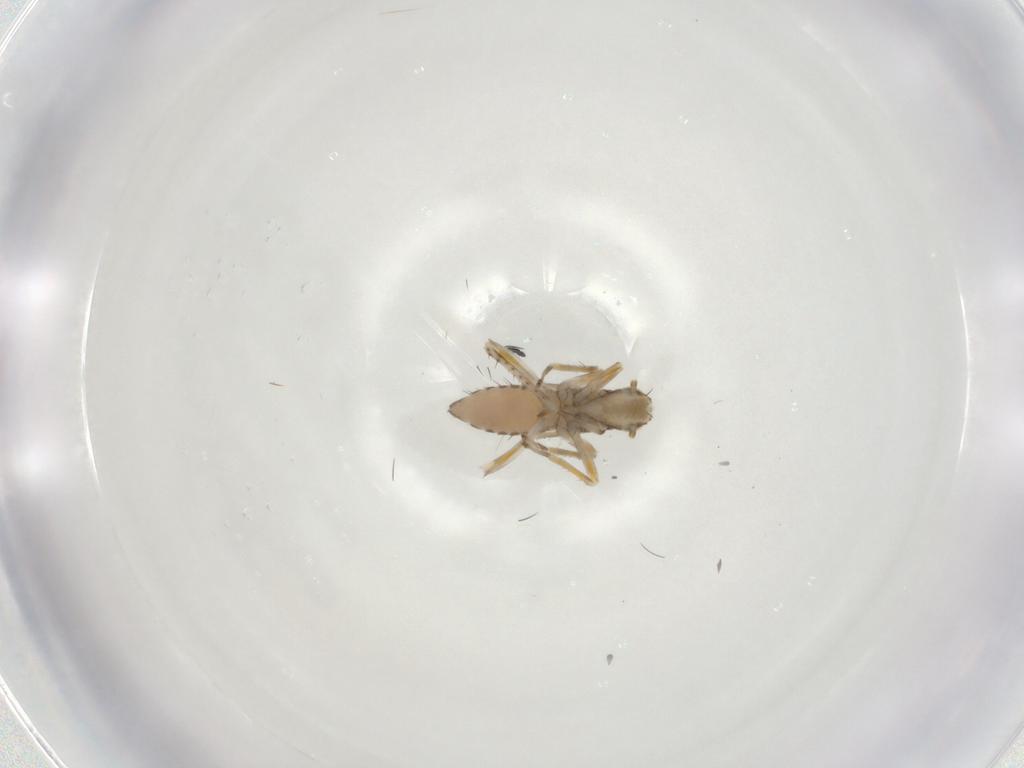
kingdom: Animalia
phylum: Arthropoda
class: Insecta
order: Hemiptera
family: Cicadellidae
